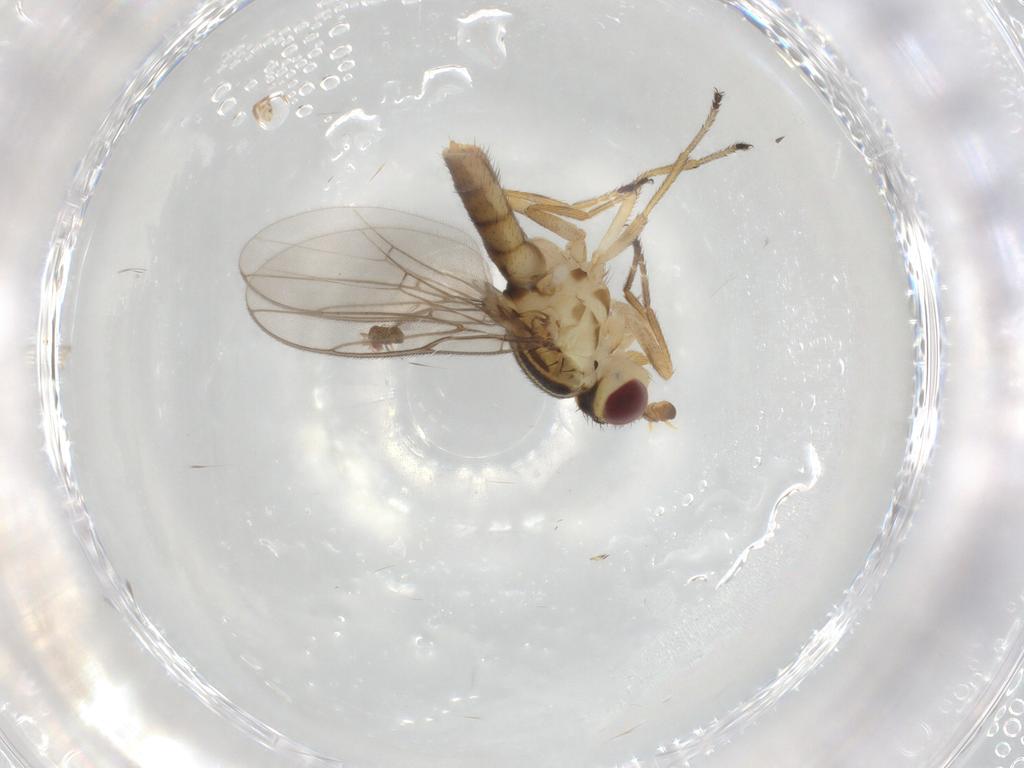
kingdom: Animalia
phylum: Arthropoda
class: Insecta
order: Diptera
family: Chloropidae
